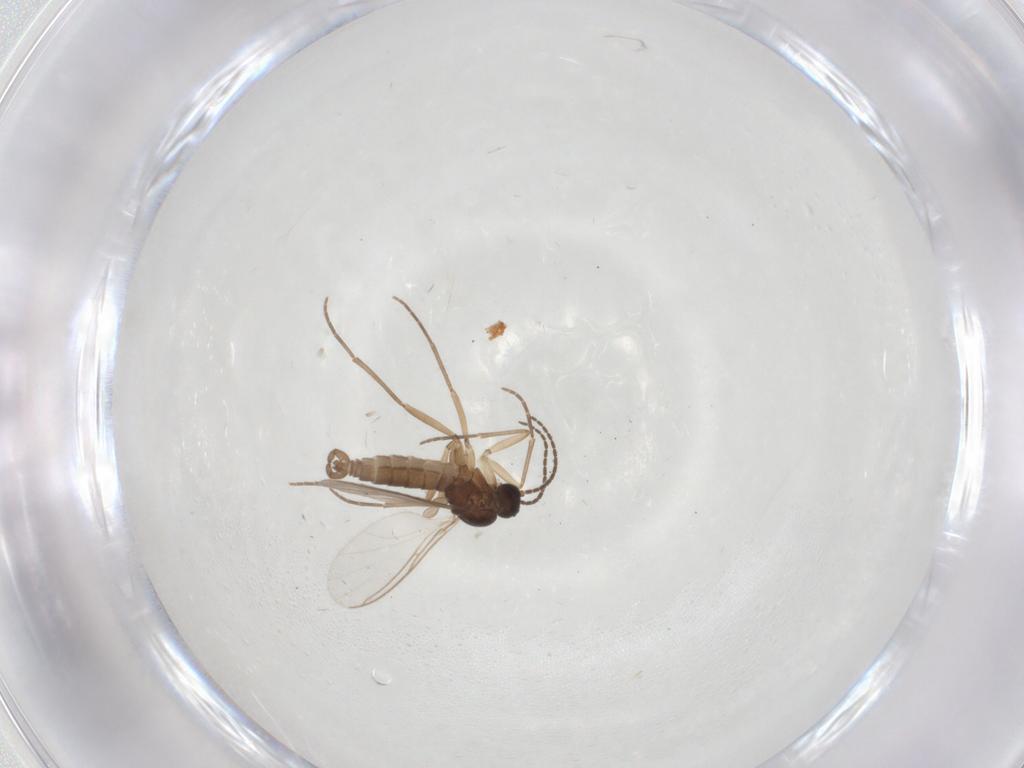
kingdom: Animalia
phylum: Arthropoda
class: Insecta
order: Diptera
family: Sciaridae
